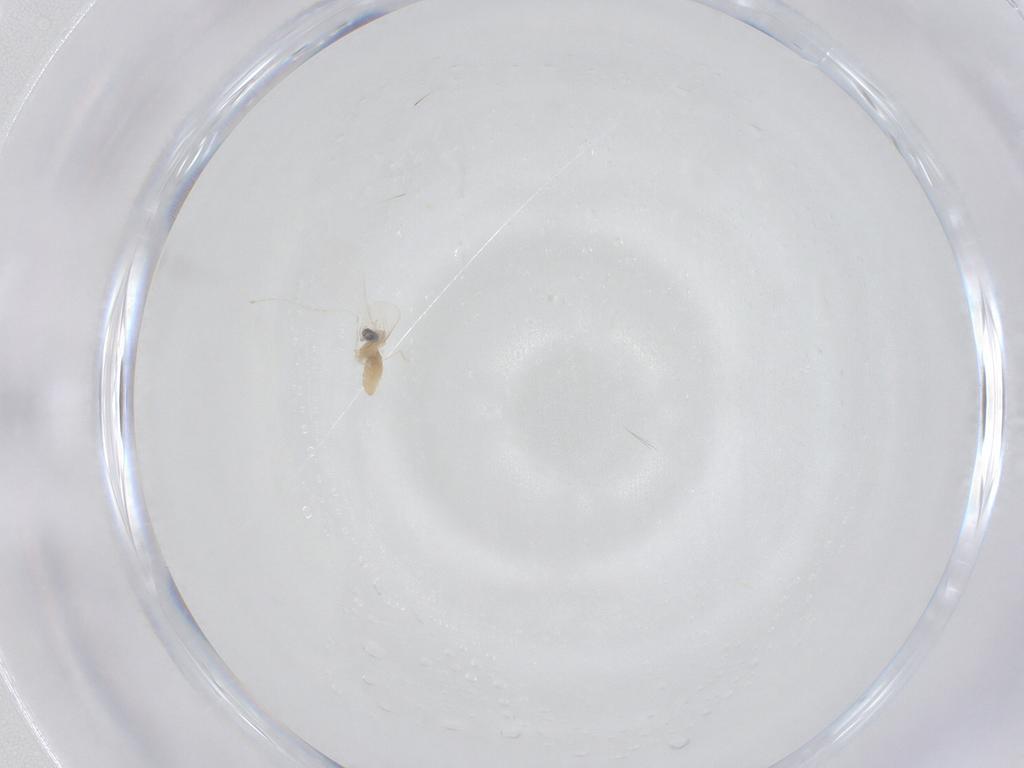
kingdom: Animalia
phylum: Arthropoda
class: Insecta
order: Diptera
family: Cecidomyiidae
